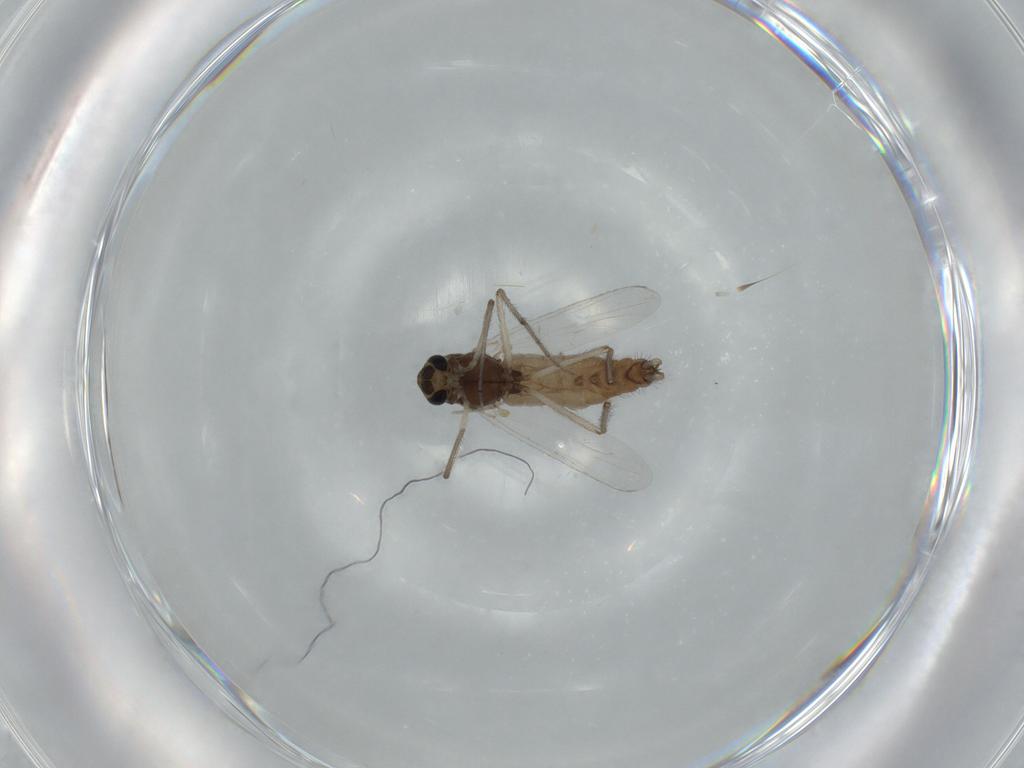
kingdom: Animalia
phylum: Arthropoda
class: Insecta
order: Diptera
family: Chironomidae
